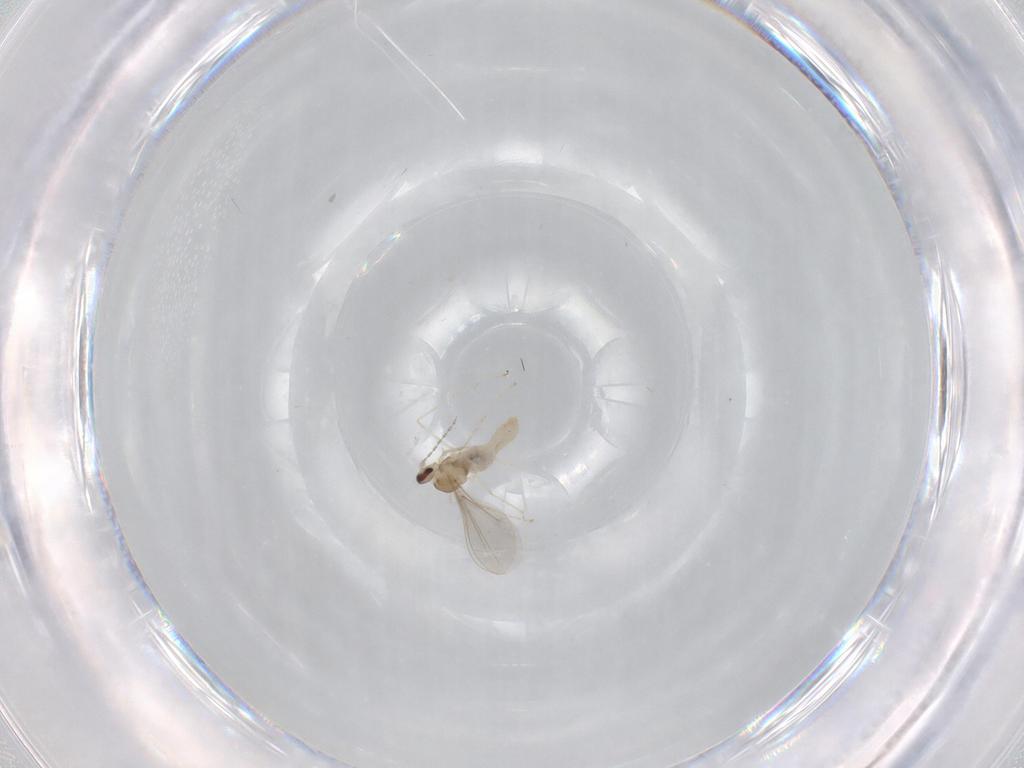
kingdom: Animalia
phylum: Arthropoda
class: Insecta
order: Diptera
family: Cecidomyiidae
